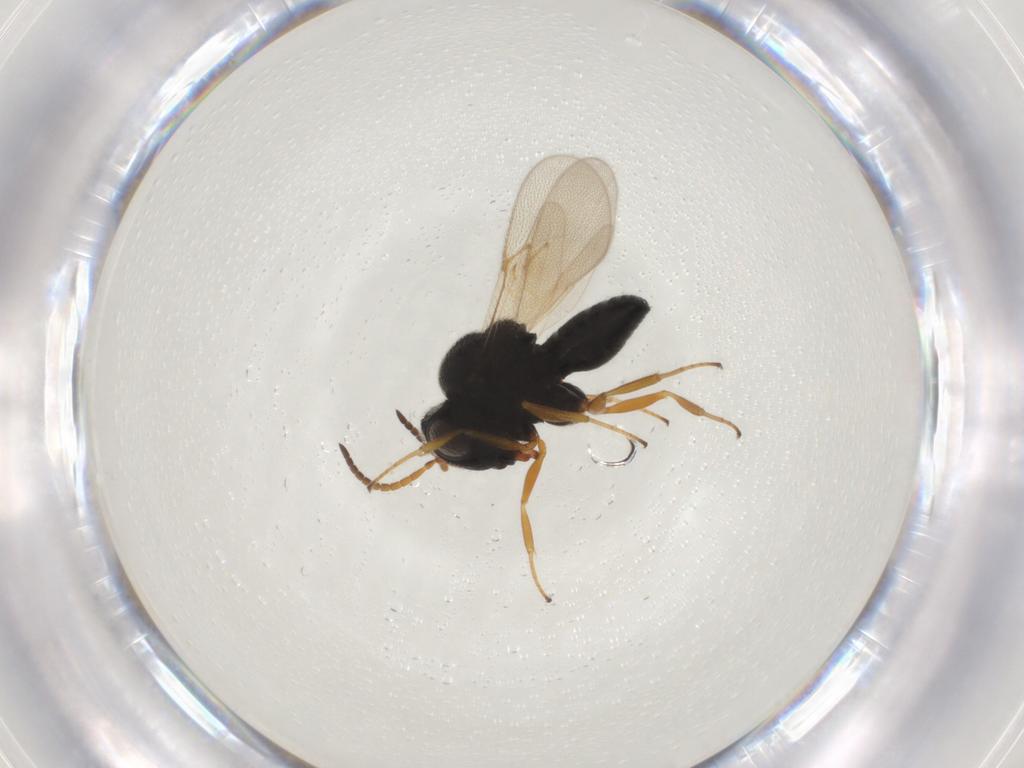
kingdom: Animalia
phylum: Arthropoda
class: Insecta
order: Hymenoptera
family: Scelionidae
